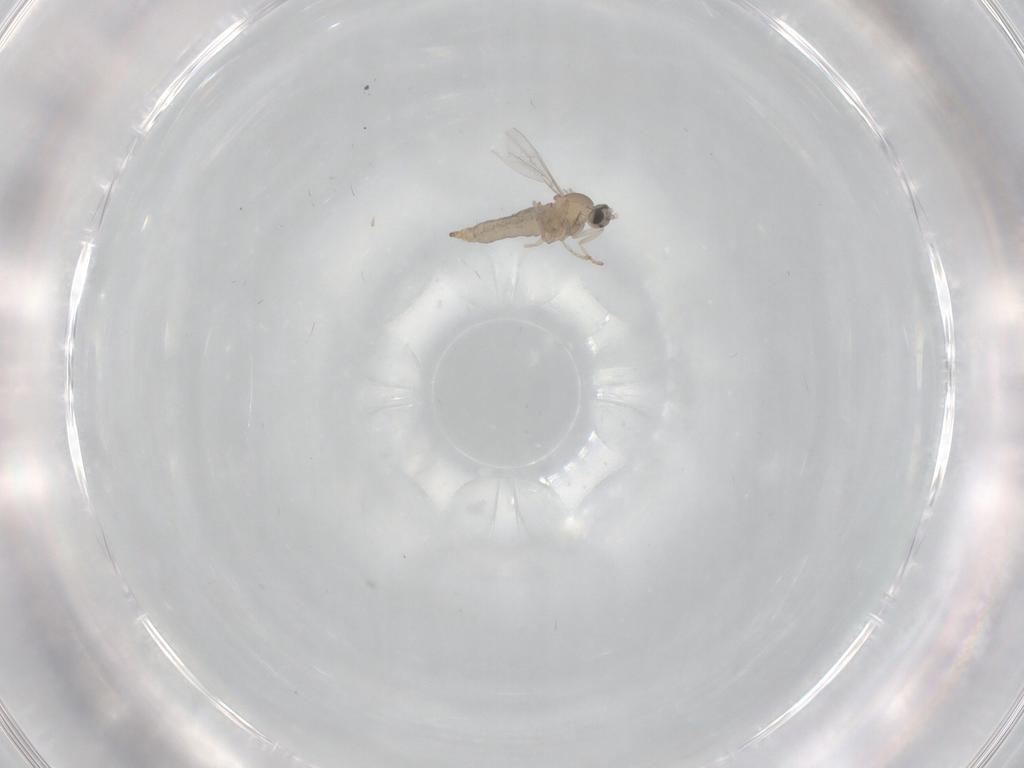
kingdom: Animalia
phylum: Arthropoda
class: Insecta
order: Diptera
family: Cecidomyiidae
